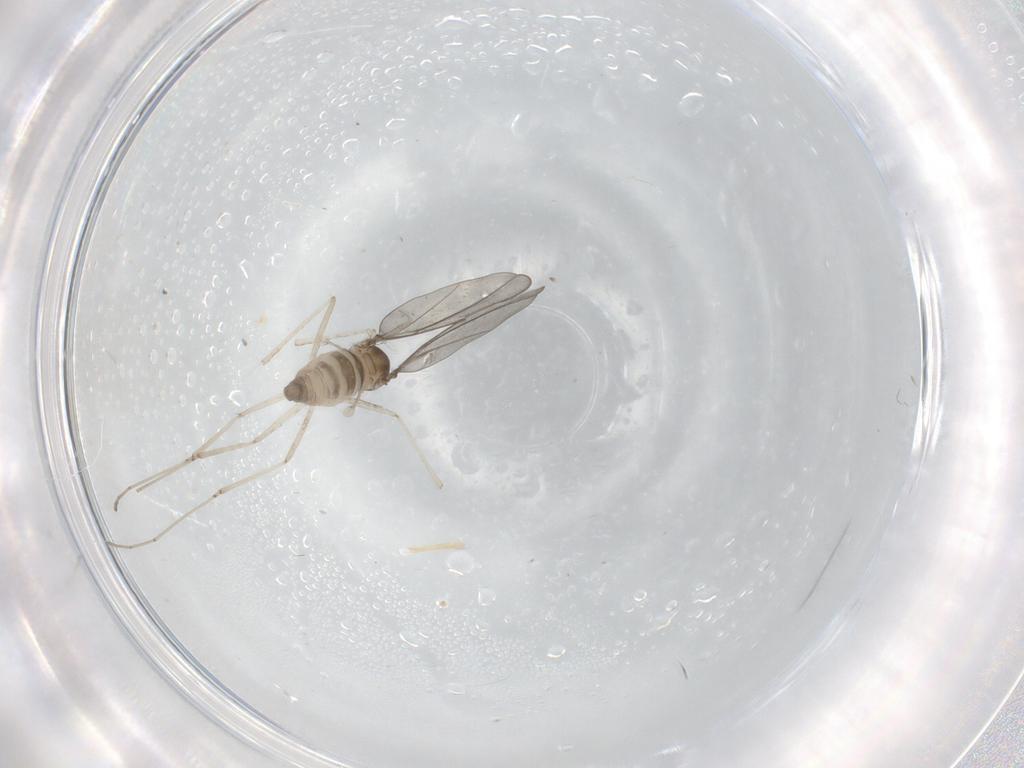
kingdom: Animalia
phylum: Arthropoda
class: Insecta
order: Diptera
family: Cecidomyiidae
